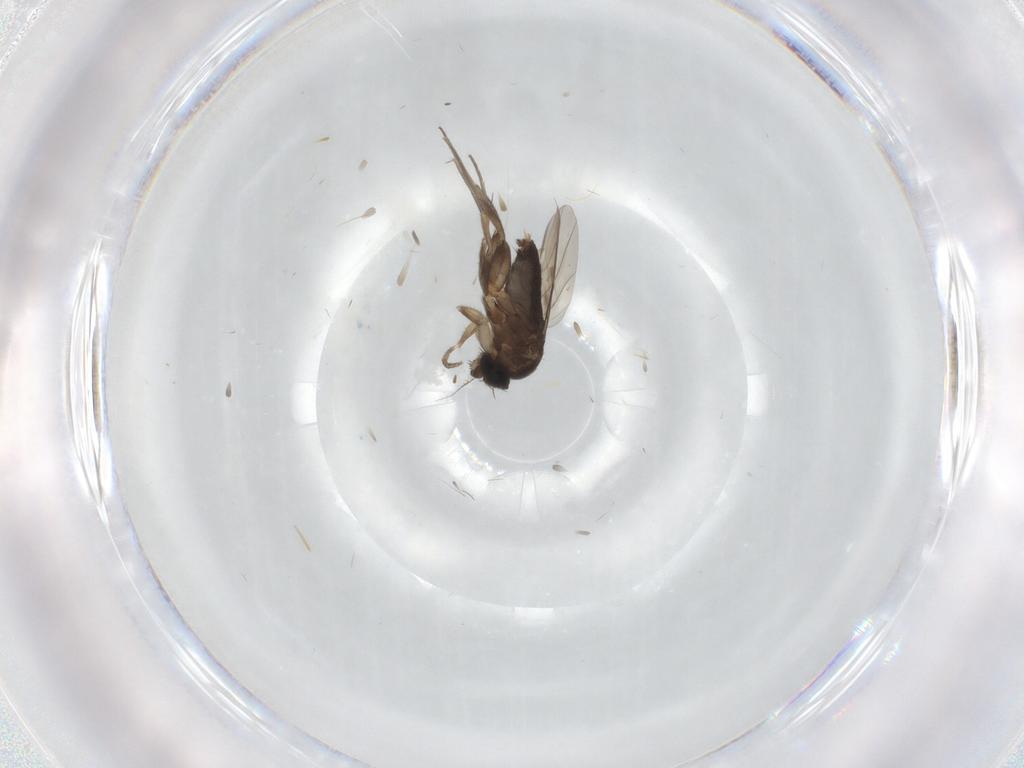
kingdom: Animalia
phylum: Arthropoda
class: Insecta
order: Diptera
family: Phoridae
